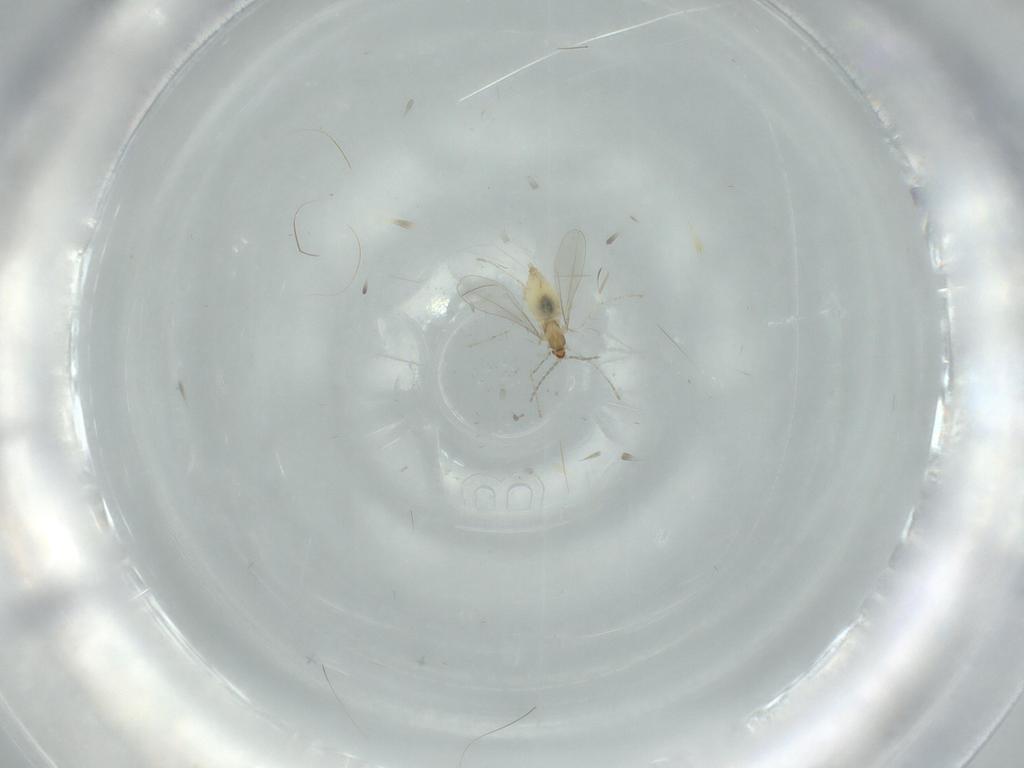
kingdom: Animalia
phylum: Arthropoda
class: Insecta
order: Diptera
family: Cecidomyiidae
